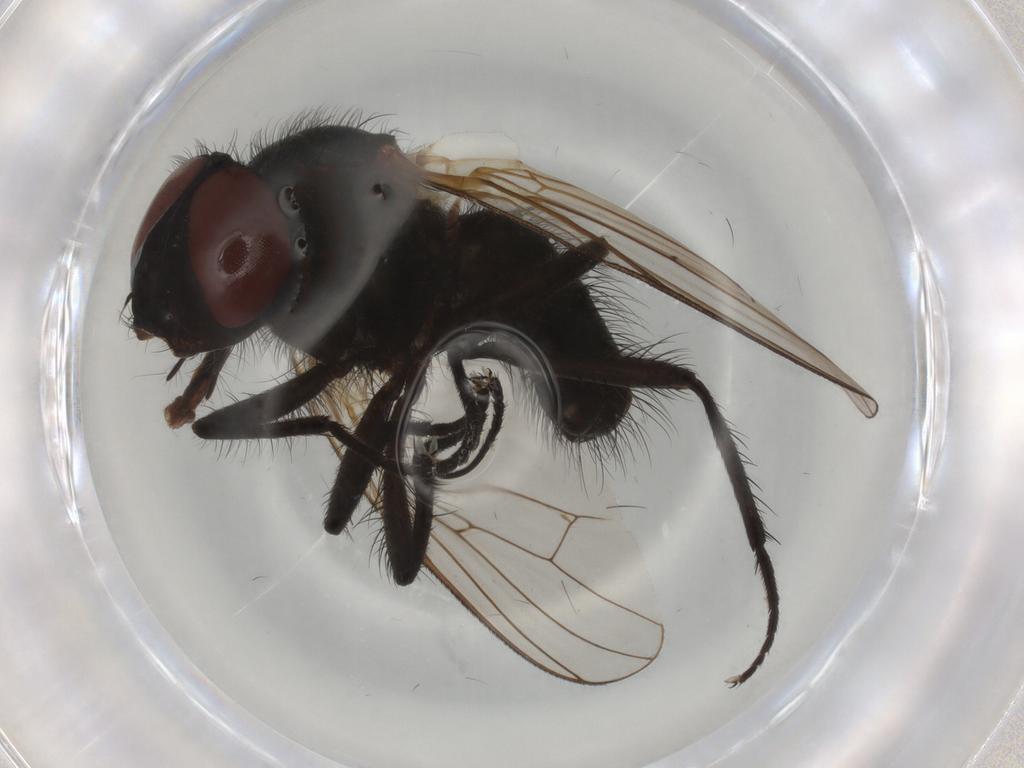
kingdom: Animalia
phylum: Arthropoda
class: Insecta
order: Diptera
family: Anthomyiidae
